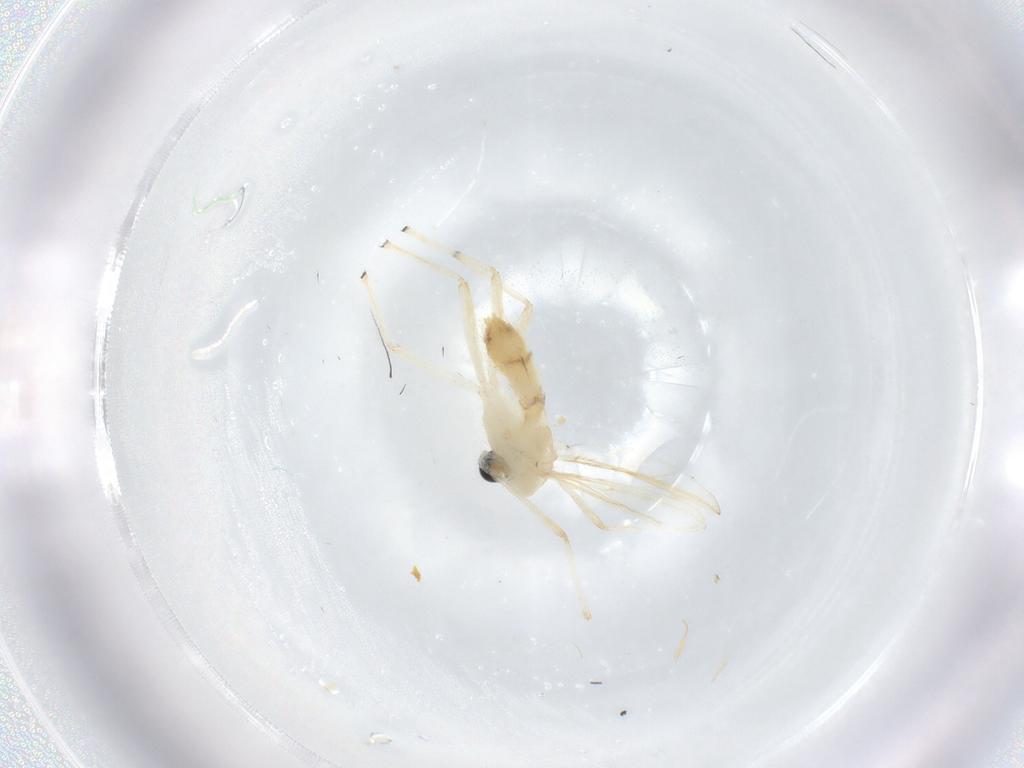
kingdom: Animalia
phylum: Arthropoda
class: Insecta
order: Diptera
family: Chironomidae
